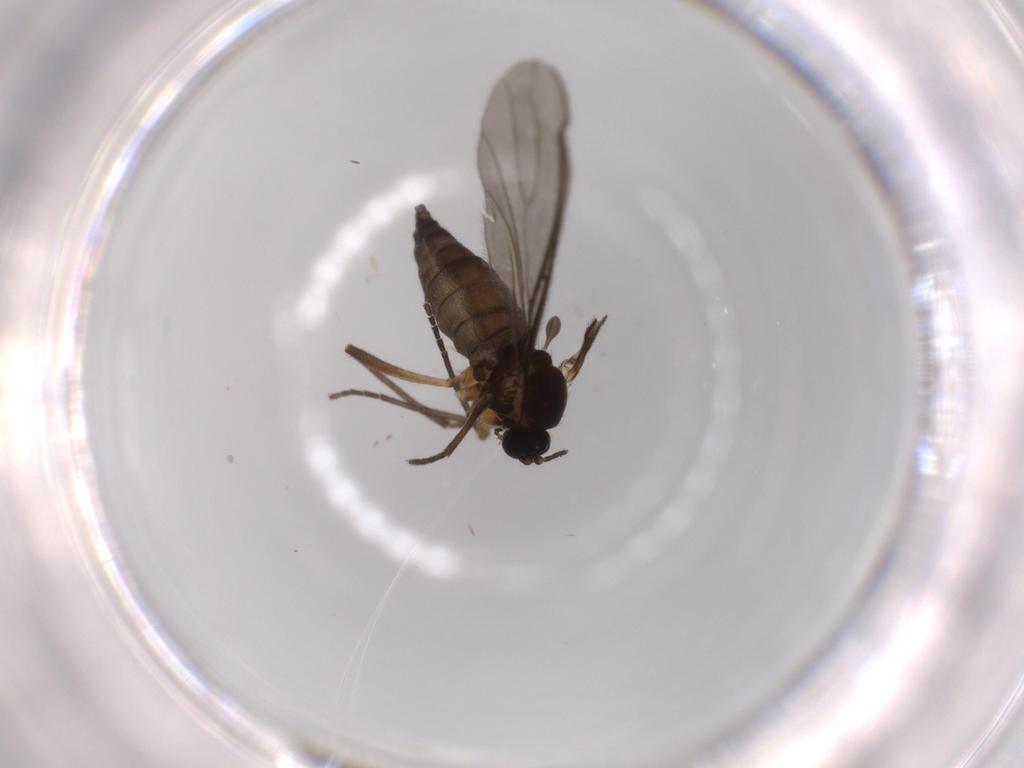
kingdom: Animalia
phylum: Arthropoda
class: Insecta
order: Diptera
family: Sciaridae
